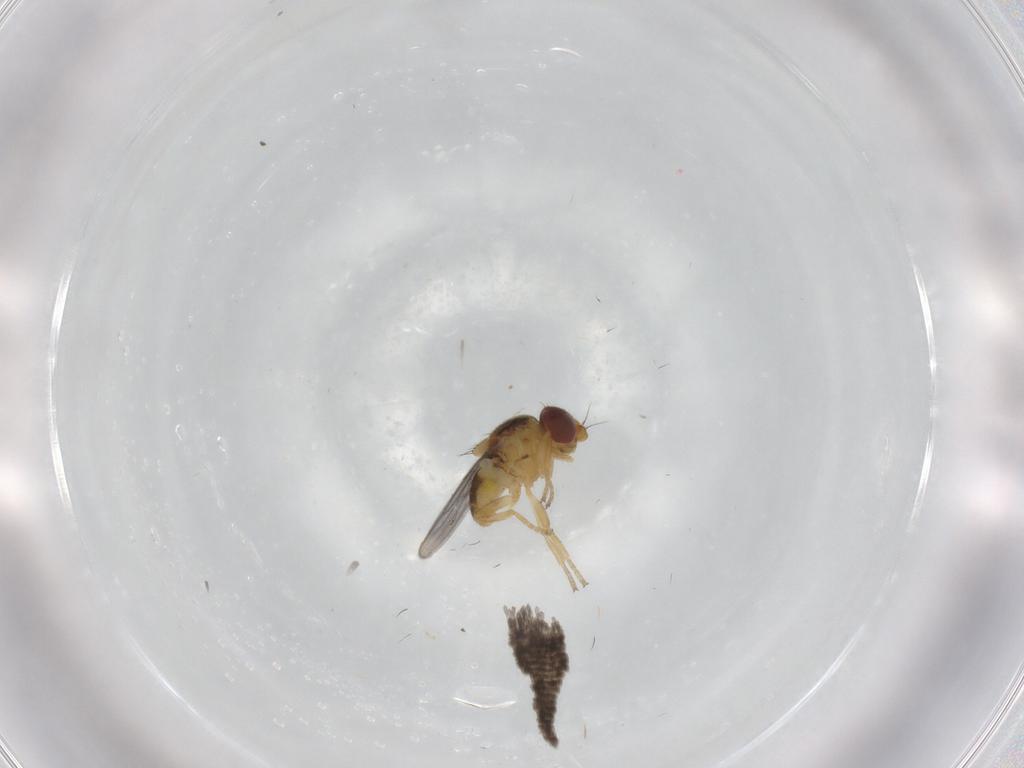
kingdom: Animalia
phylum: Arthropoda
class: Insecta
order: Diptera
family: Chloropidae
